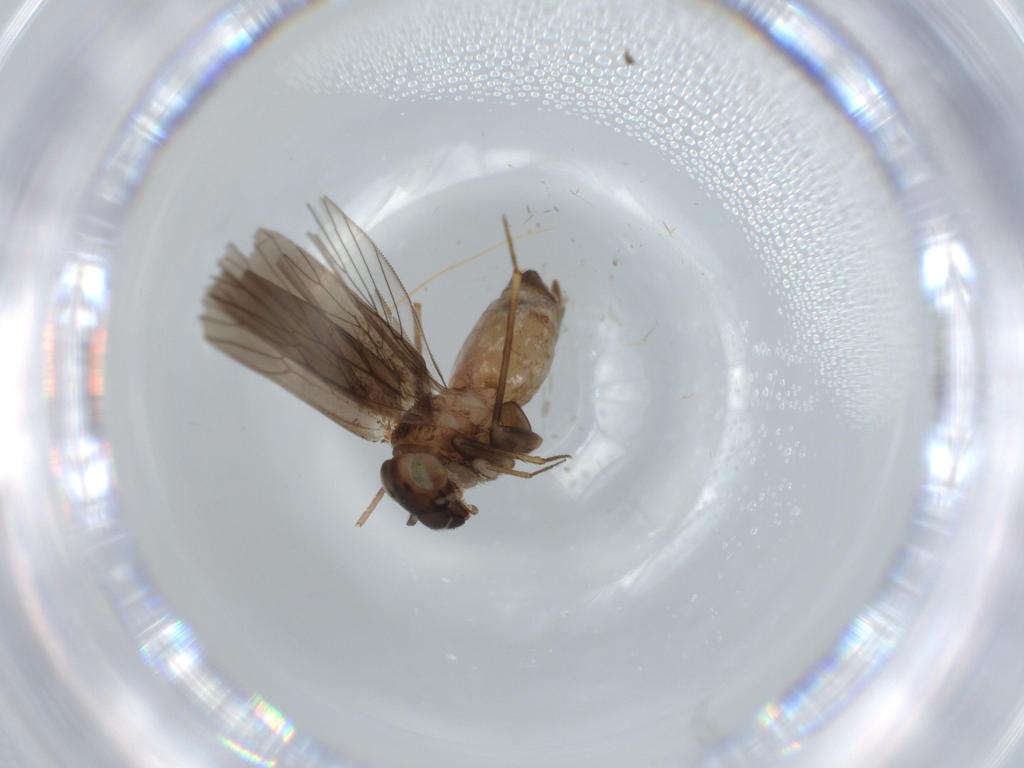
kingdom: Animalia
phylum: Arthropoda
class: Insecta
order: Psocodea
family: Lepidopsocidae
